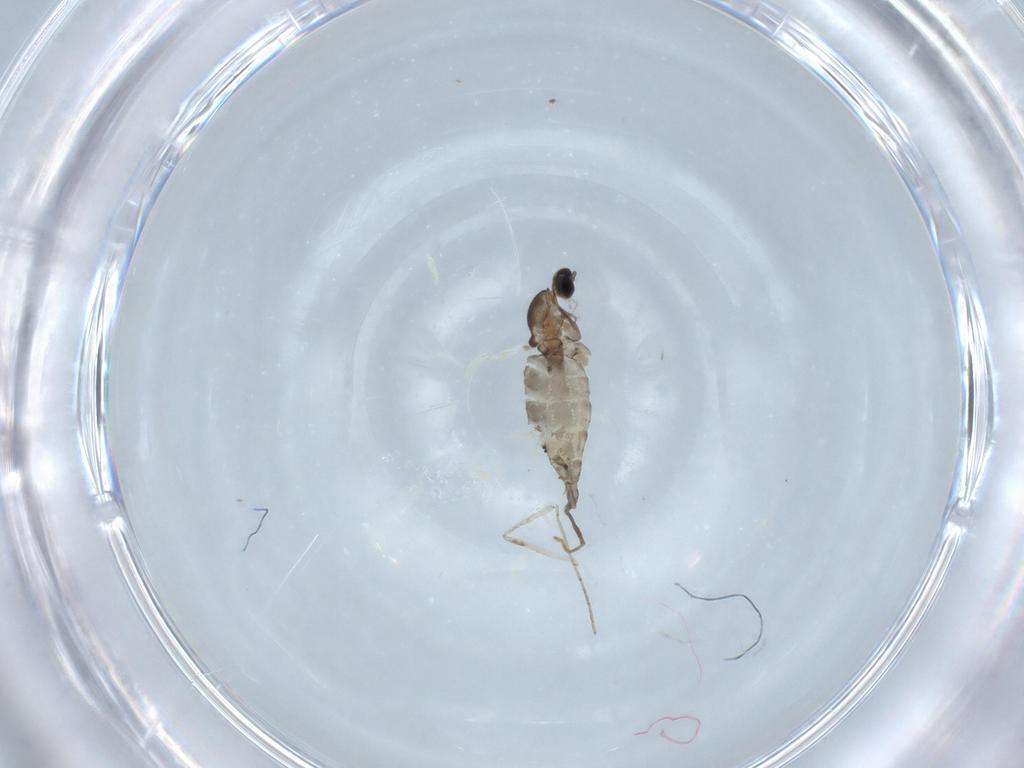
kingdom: Animalia
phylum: Arthropoda
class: Insecta
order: Diptera
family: Cecidomyiidae
